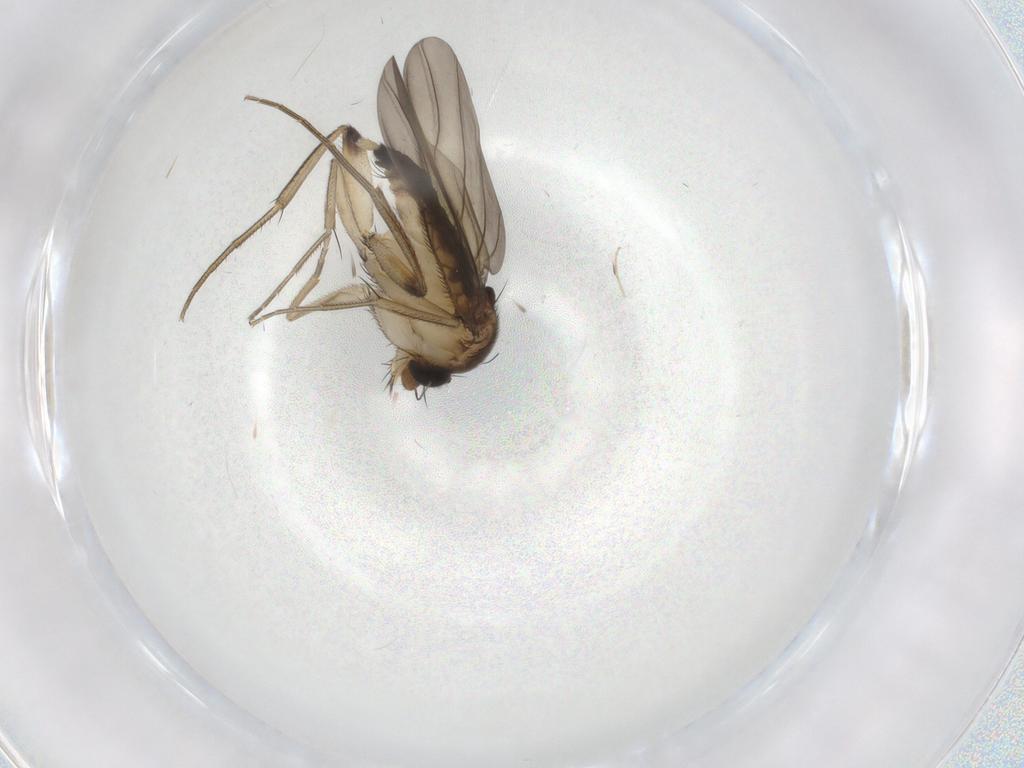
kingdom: Animalia
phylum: Arthropoda
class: Insecta
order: Diptera
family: Phoridae
